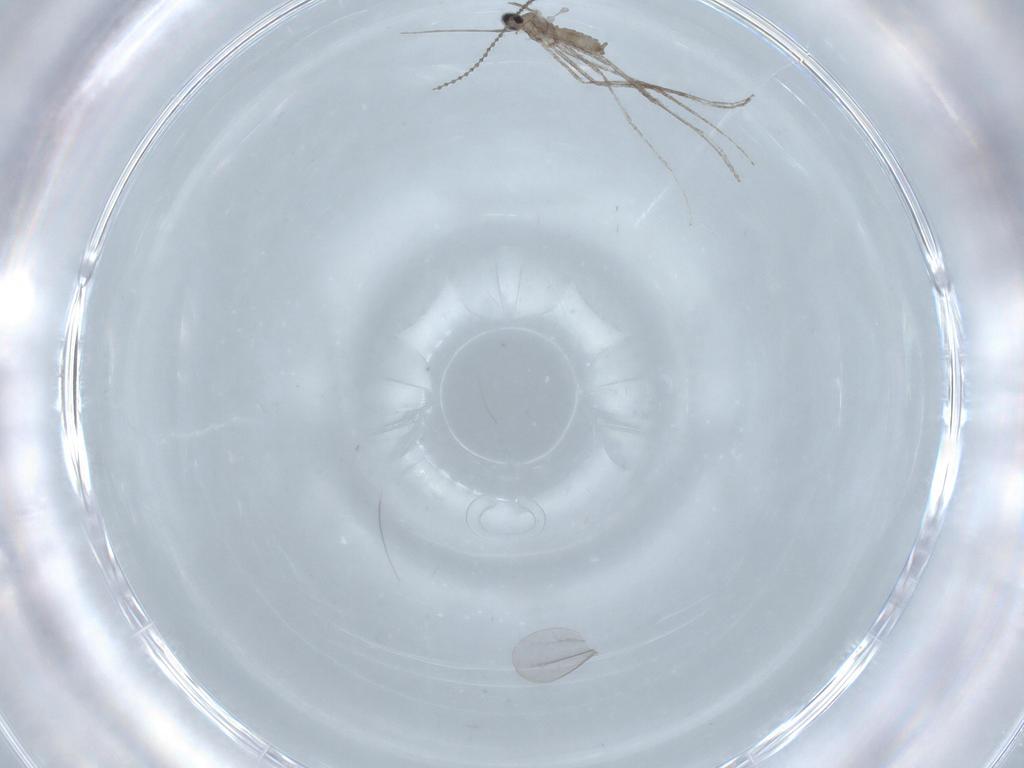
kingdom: Animalia
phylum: Arthropoda
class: Insecta
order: Diptera
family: Cecidomyiidae
